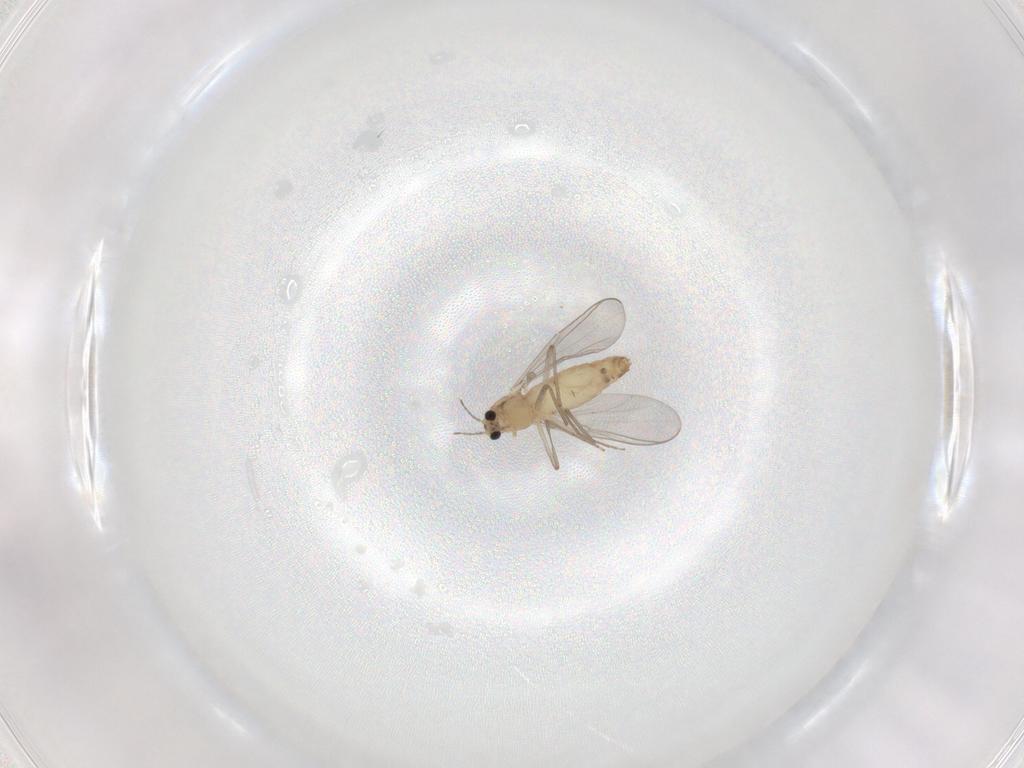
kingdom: Animalia
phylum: Arthropoda
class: Insecta
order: Diptera
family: Chironomidae
